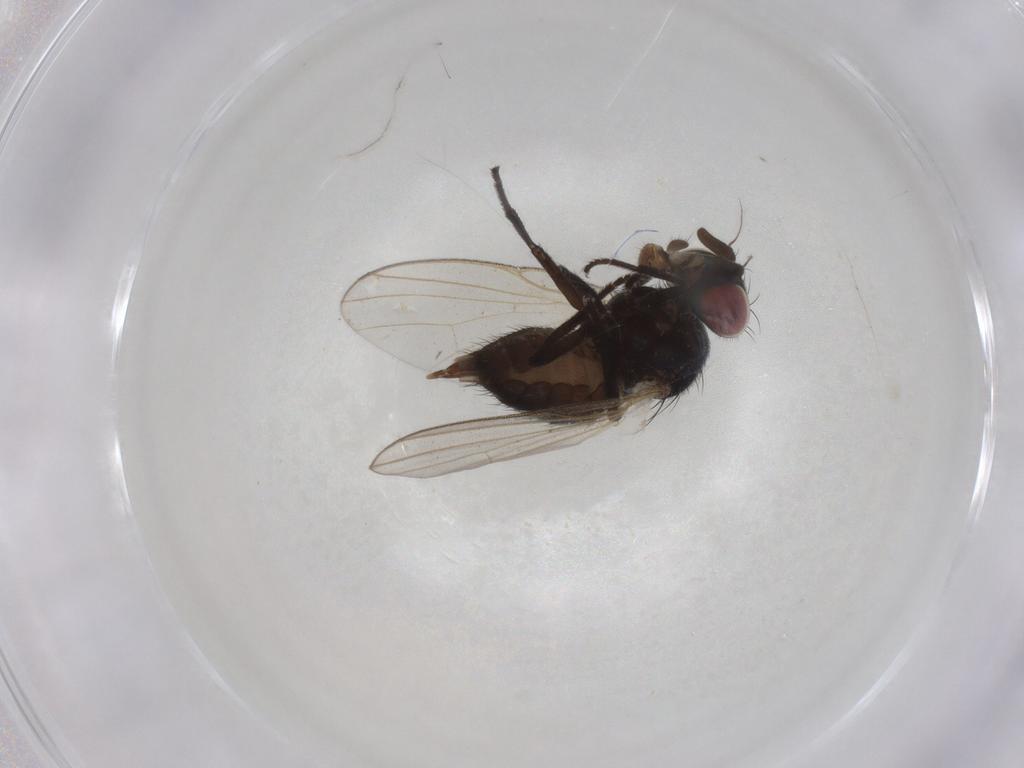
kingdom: Animalia
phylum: Arthropoda
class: Insecta
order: Diptera
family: Lonchaeidae
